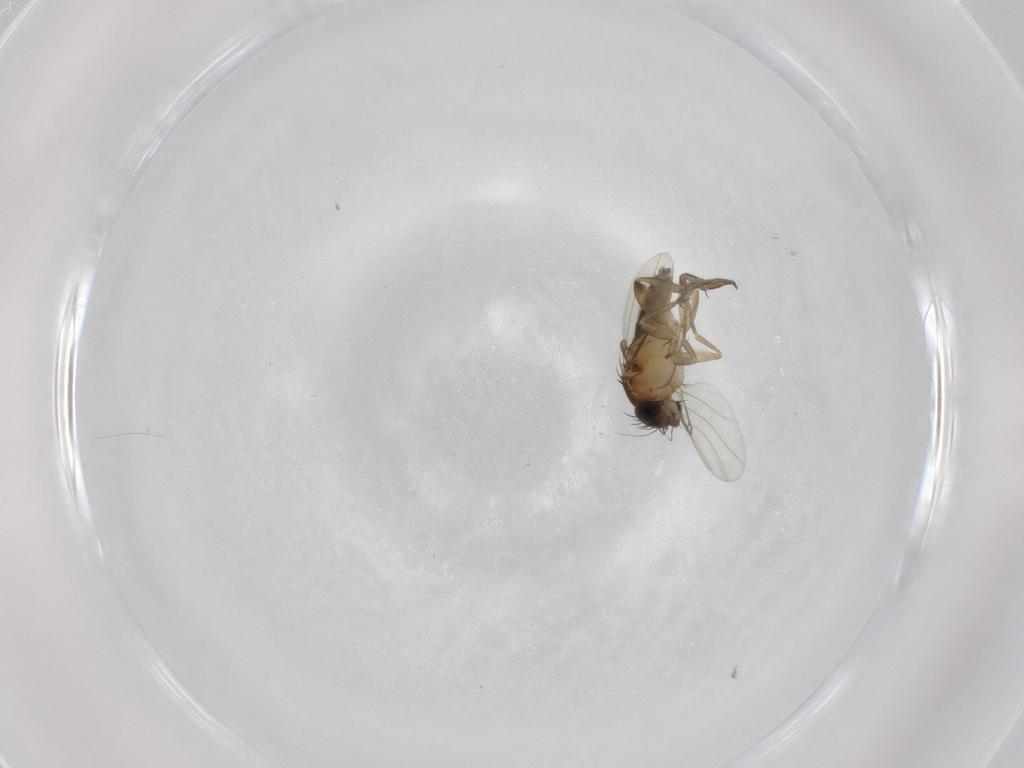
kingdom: Animalia
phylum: Arthropoda
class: Insecta
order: Diptera
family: Phoridae
